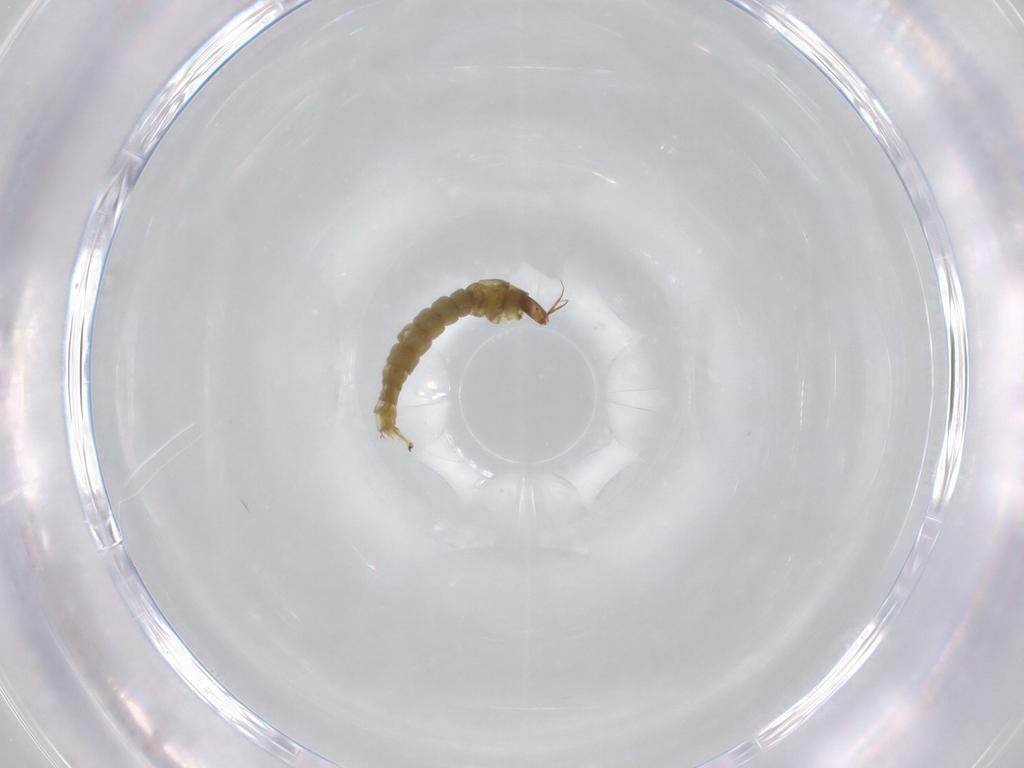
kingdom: Animalia
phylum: Arthropoda
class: Insecta
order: Diptera
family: Chironomidae
